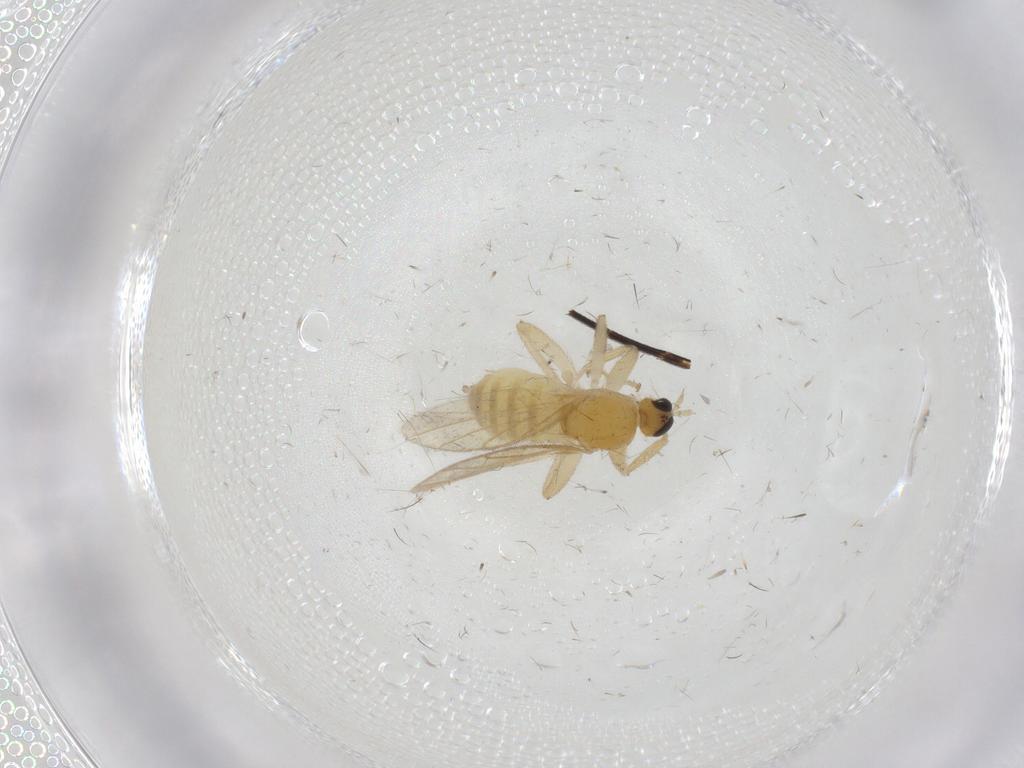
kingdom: Animalia
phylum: Arthropoda
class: Insecta
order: Diptera
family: Hybotidae
